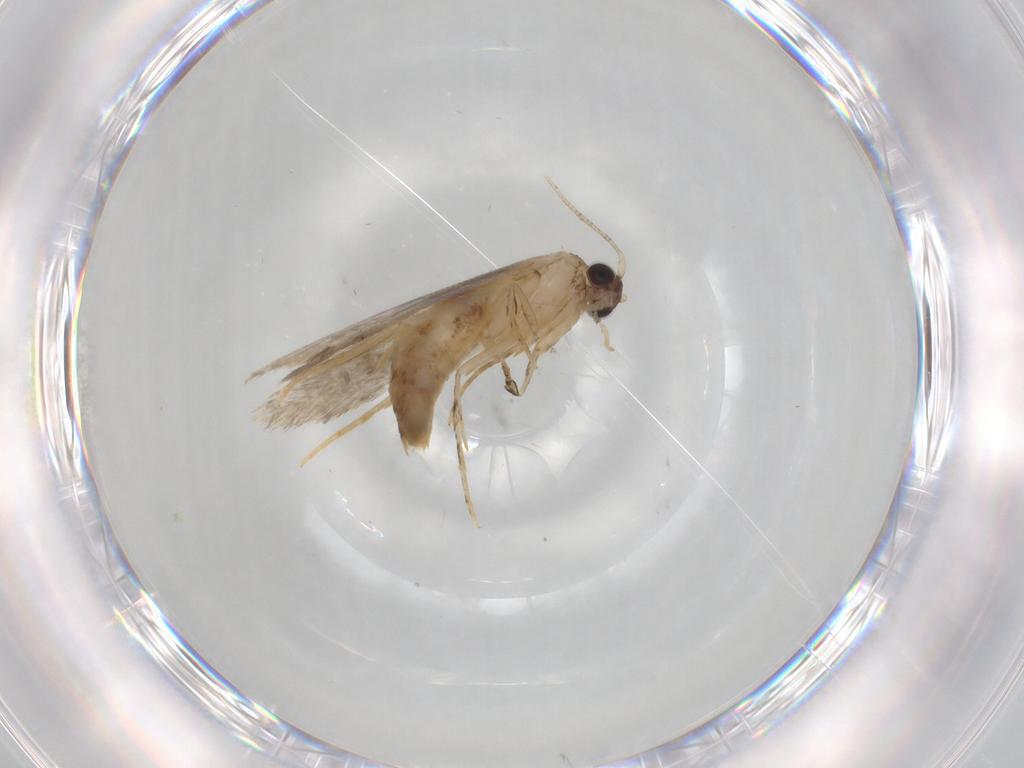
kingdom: Animalia
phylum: Arthropoda
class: Insecta
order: Lepidoptera
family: Autostichidae
